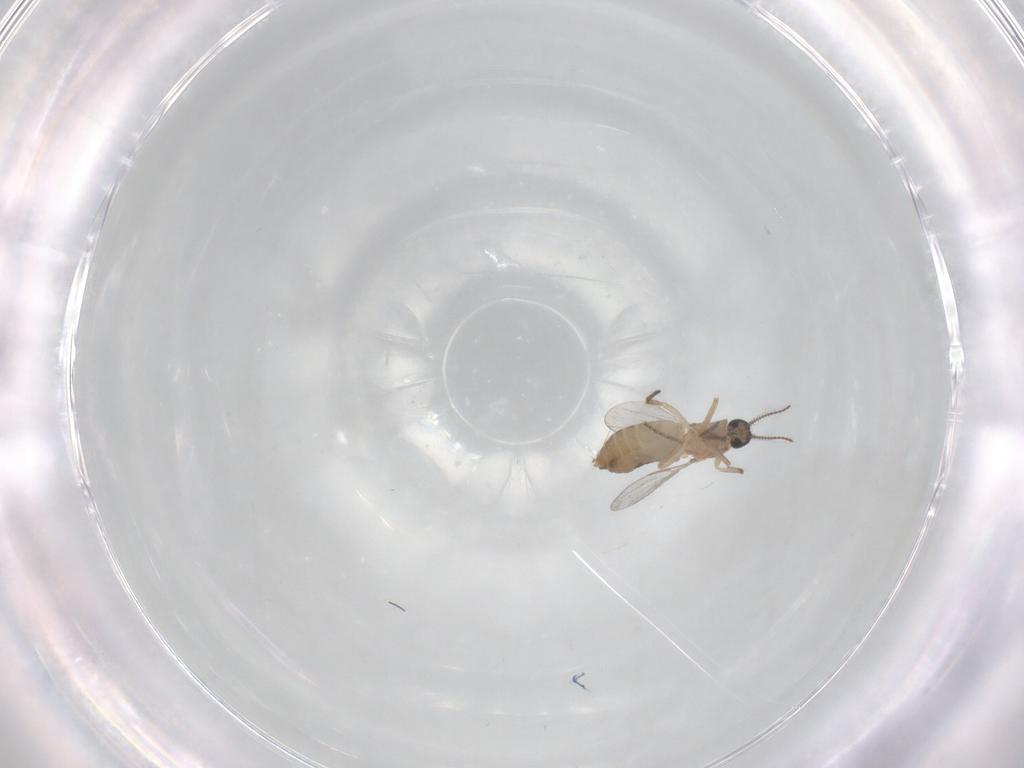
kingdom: Animalia
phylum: Arthropoda
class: Insecta
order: Diptera
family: Ceratopogonidae
